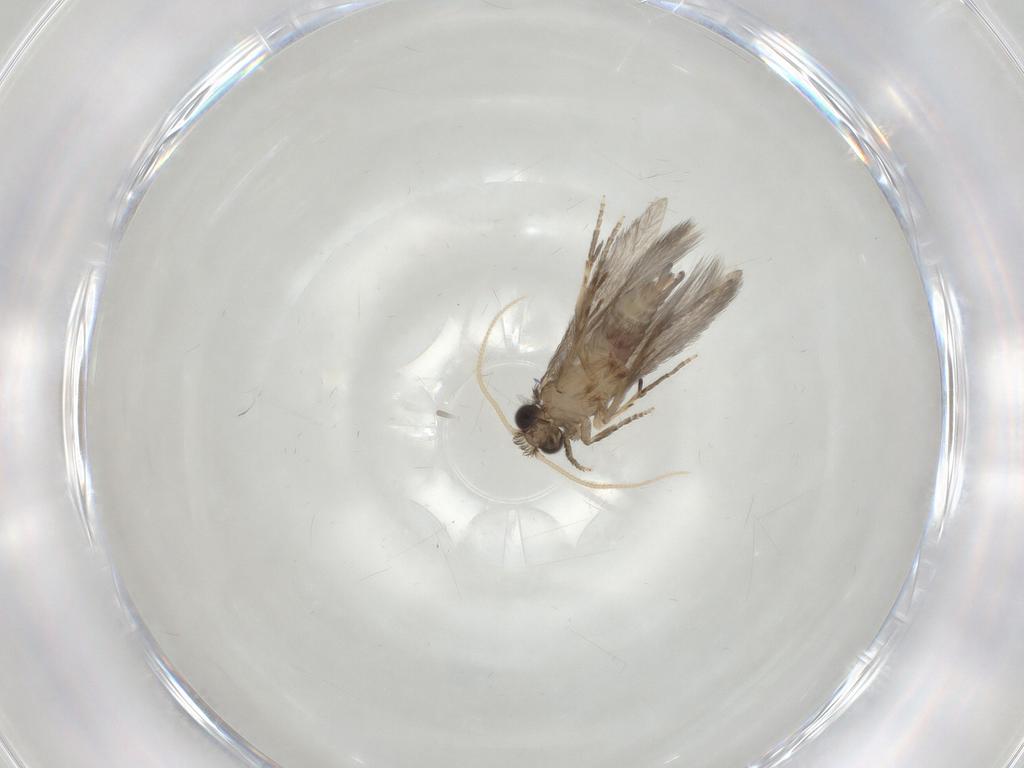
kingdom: Animalia
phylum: Arthropoda
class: Insecta
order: Trichoptera
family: Hydroptilidae
